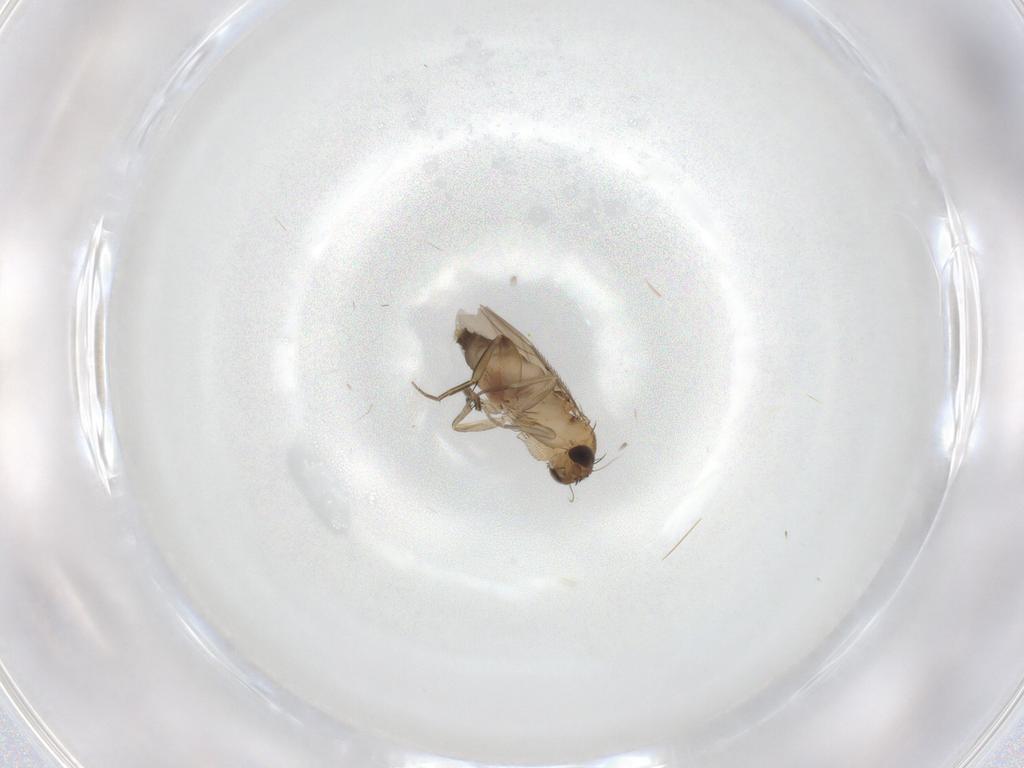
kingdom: Animalia
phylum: Arthropoda
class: Insecta
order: Diptera
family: Phoridae
